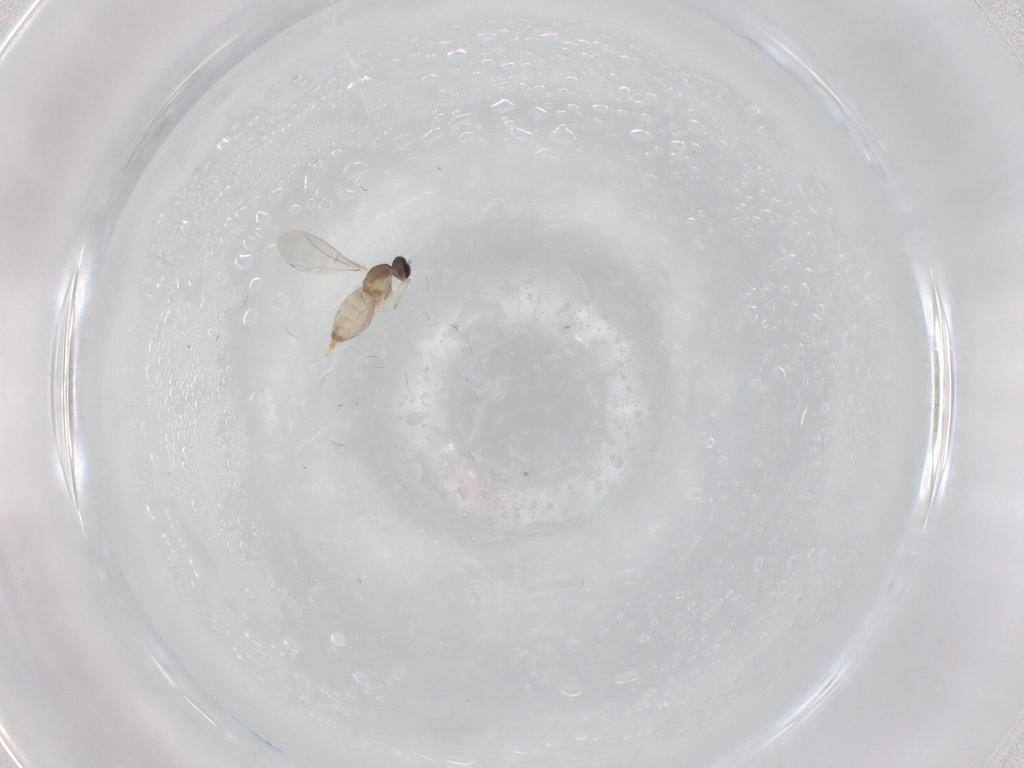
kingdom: Animalia
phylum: Arthropoda
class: Insecta
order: Diptera
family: Cecidomyiidae
